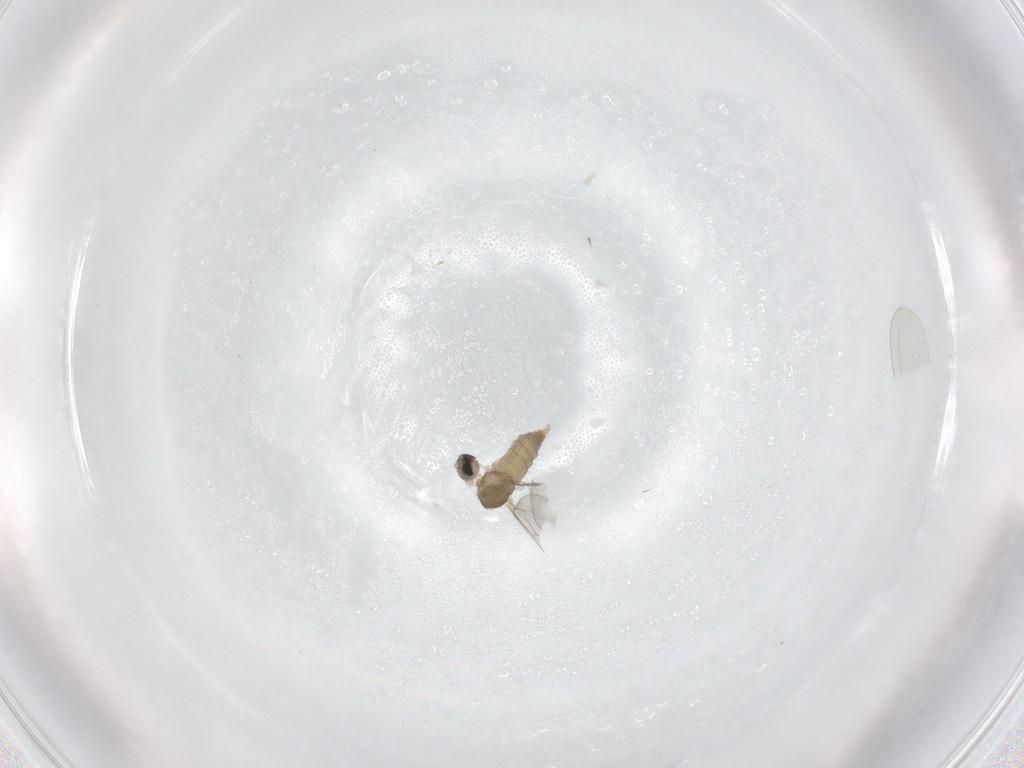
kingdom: Animalia
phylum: Arthropoda
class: Insecta
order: Diptera
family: Cecidomyiidae
